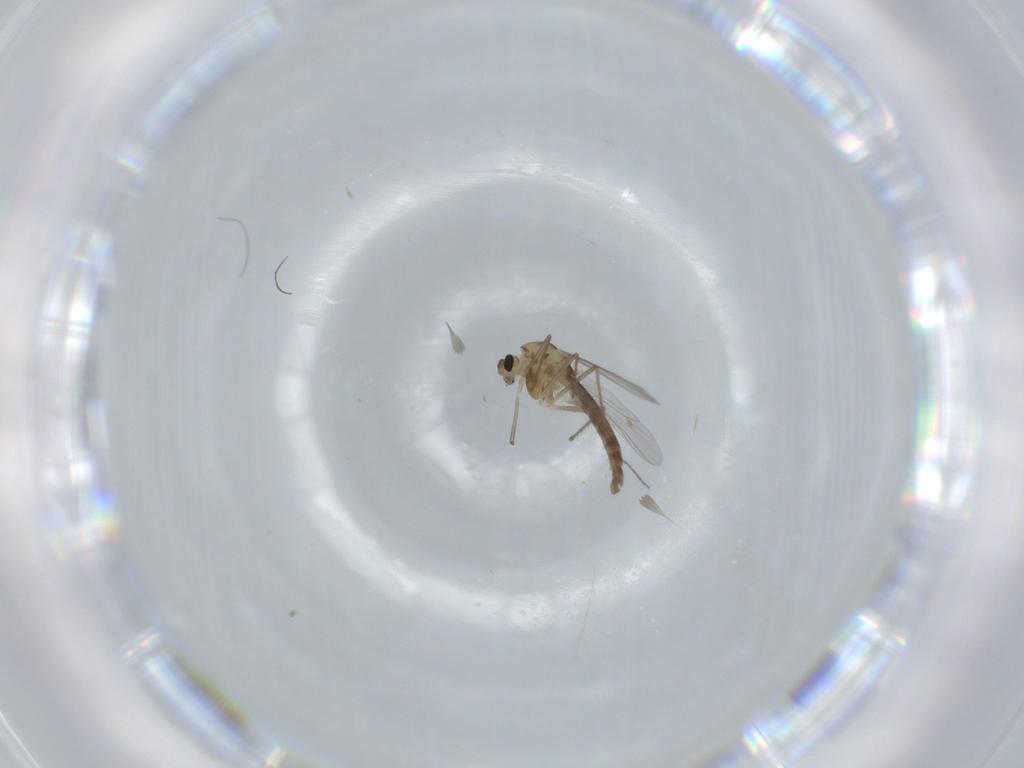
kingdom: Animalia
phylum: Arthropoda
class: Insecta
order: Diptera
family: Chironomidae
